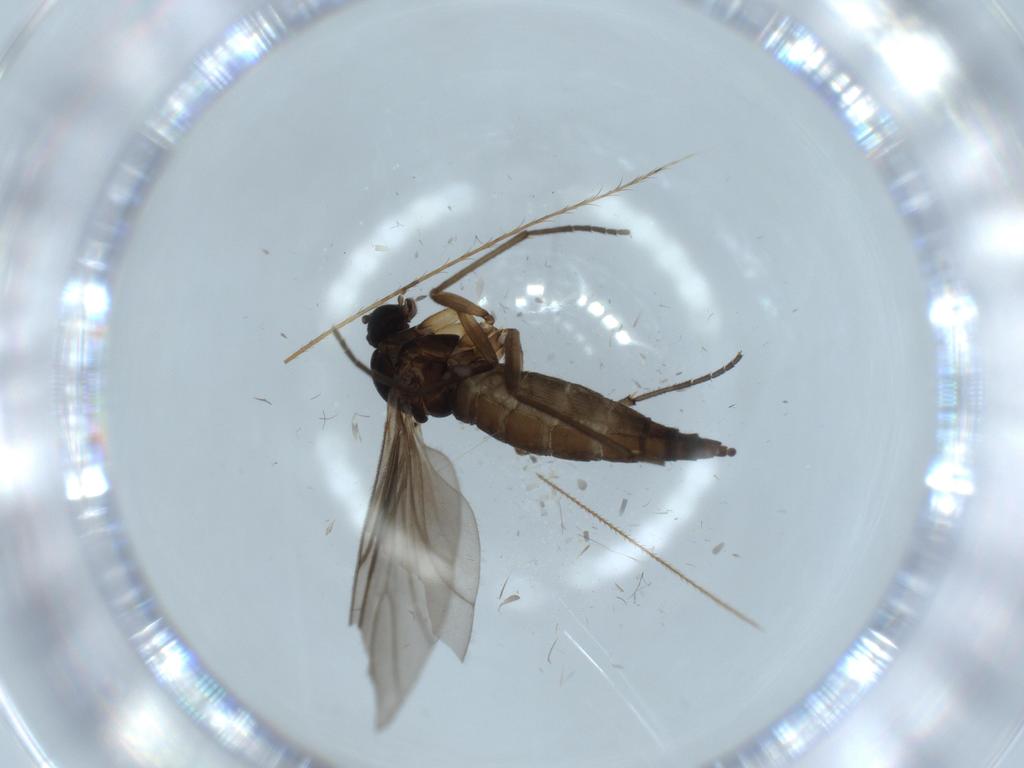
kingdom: Animalia
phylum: Arthropoda
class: Insecta
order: Diptera
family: Sciaridae
